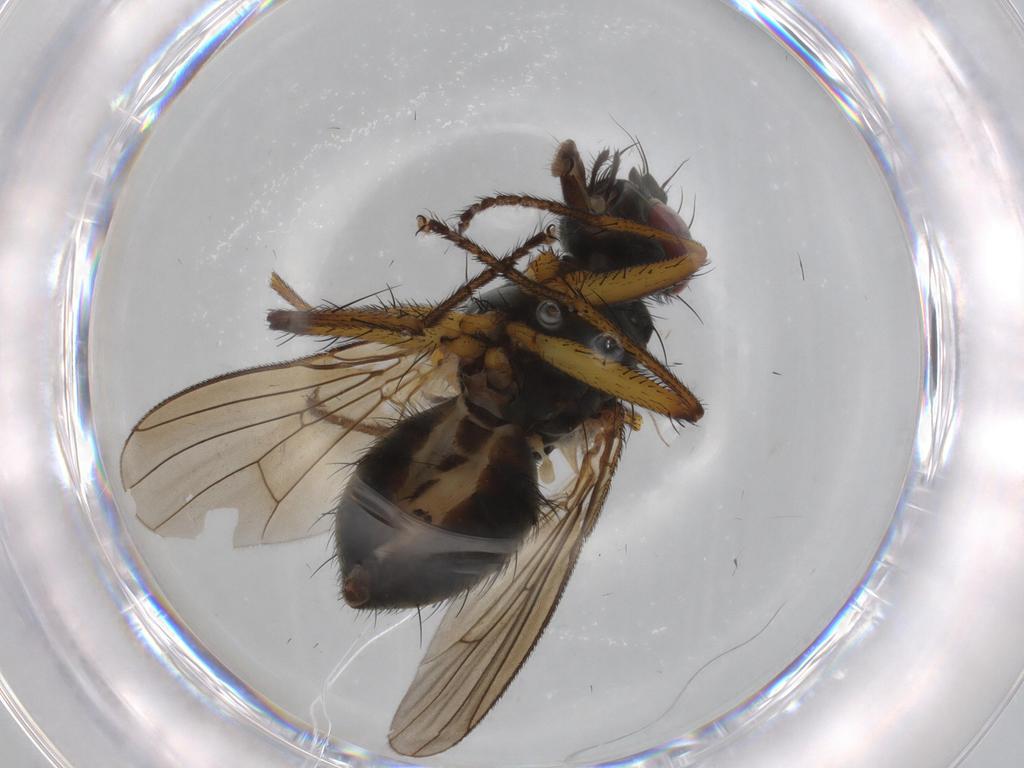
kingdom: Animalia
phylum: Arthropoda
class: Insecta
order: Diptera
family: Muscidae
